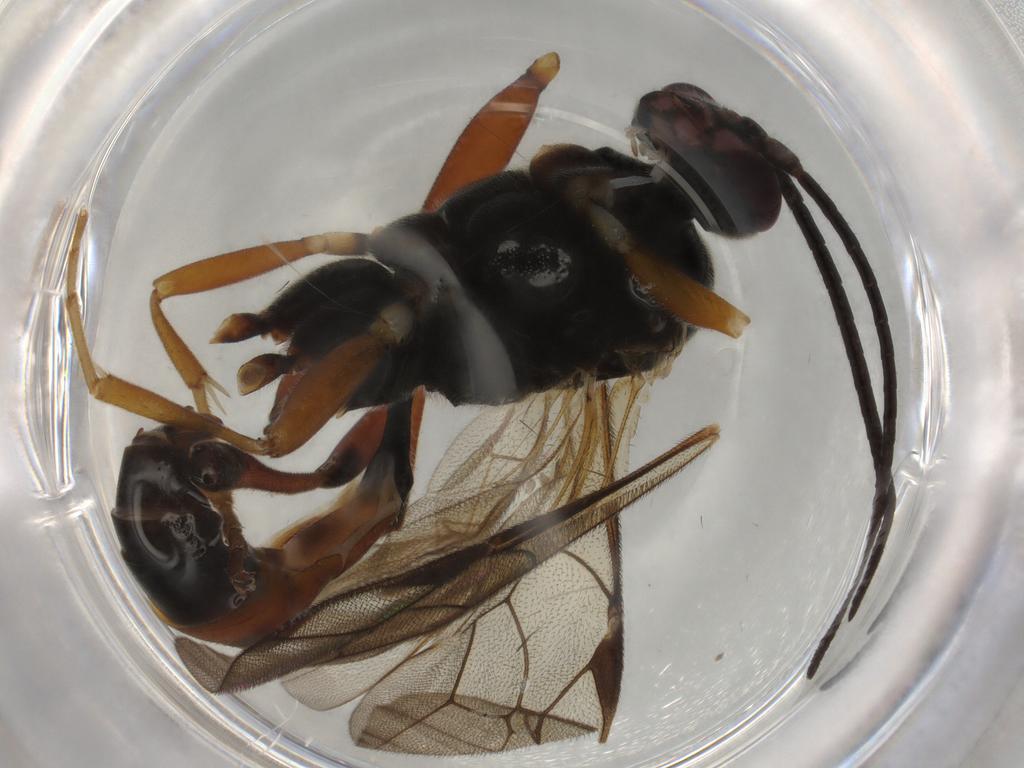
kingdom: Animalia
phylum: Arthropoda
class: Insecta
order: Hymenoptera
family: Ichneumonidae
